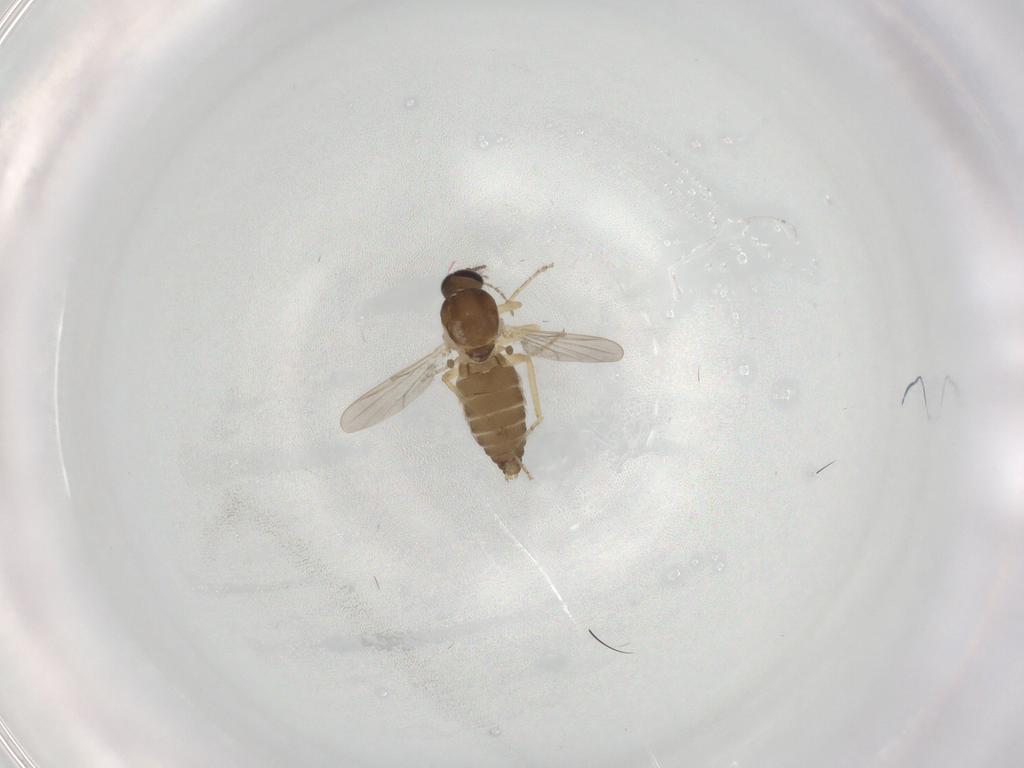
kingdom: Animalia
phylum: Arthropoda
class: Insecta
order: Diptera
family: Ceratopogonidae
